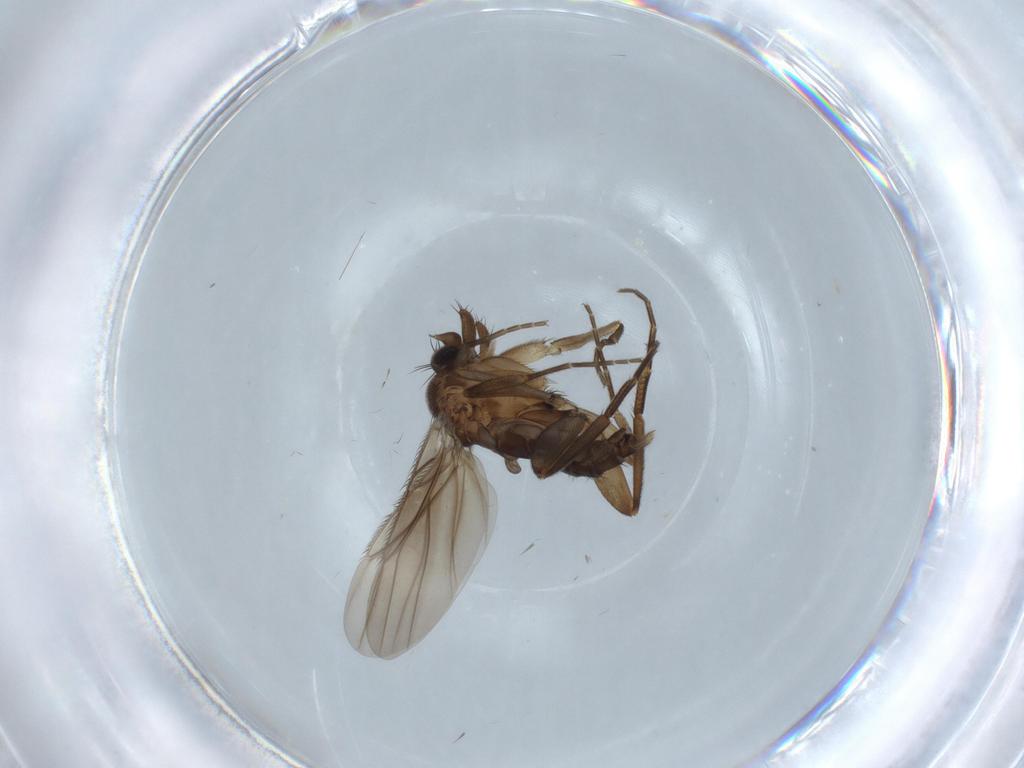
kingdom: Animalia
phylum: Arthropoda
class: Insecta
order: Diptera
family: Phoridae
